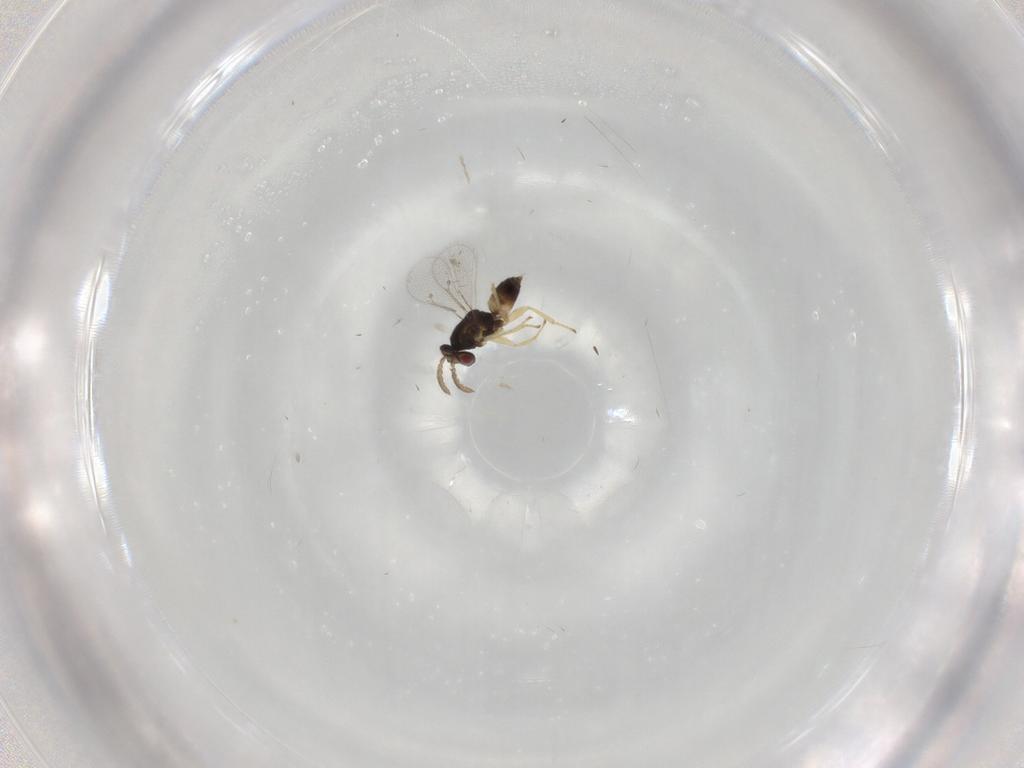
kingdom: Animalia
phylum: Arthropoda
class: Insecta
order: Hymenoptera
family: Eulophidae
